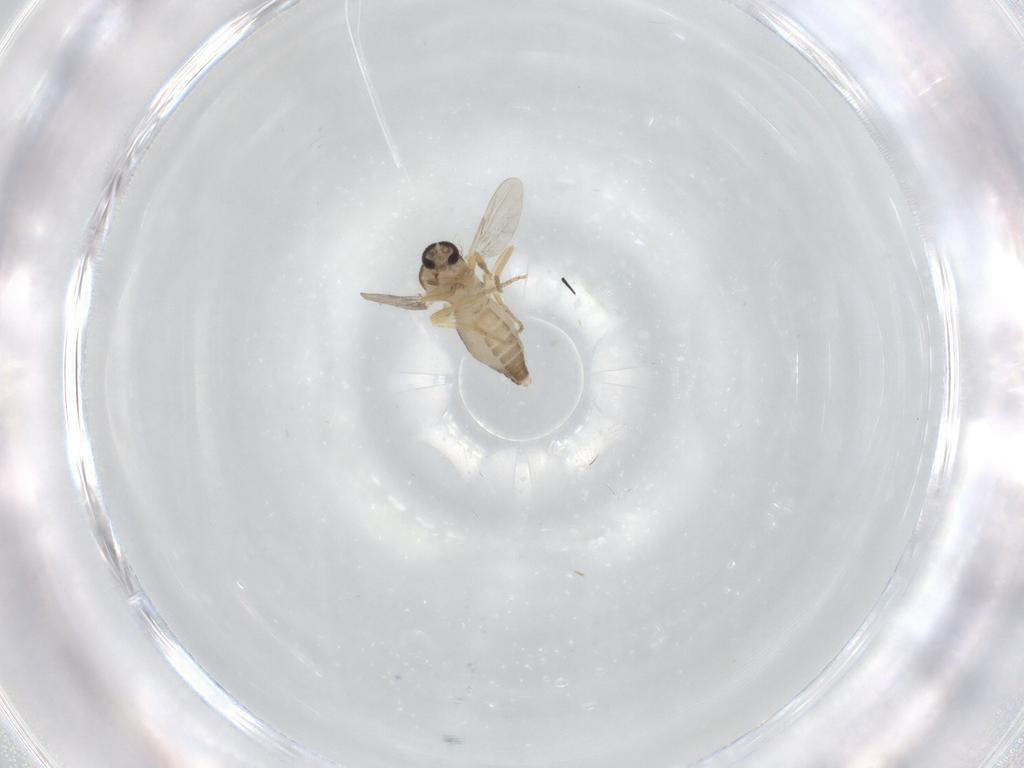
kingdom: Animalia
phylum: Arthropoda
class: Insecta
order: Diptera
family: Ceratopogonidae
